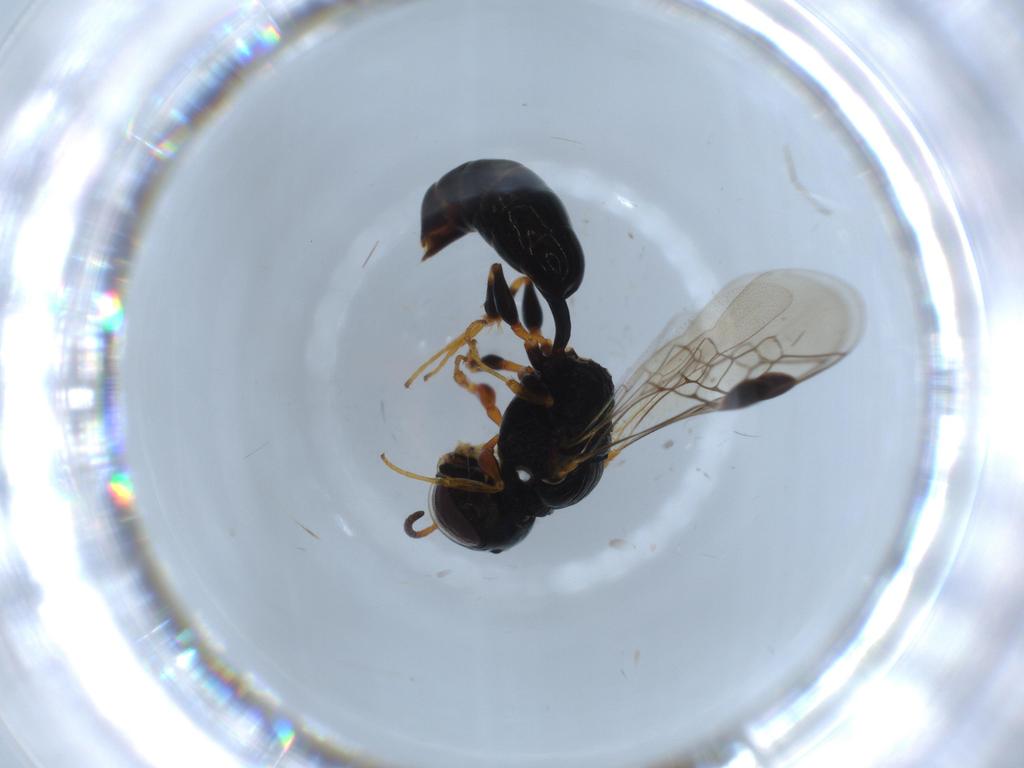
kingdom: Animalia
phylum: Arthropoda
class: Insecta
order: Hymenoptera
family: Pemphredonidae
